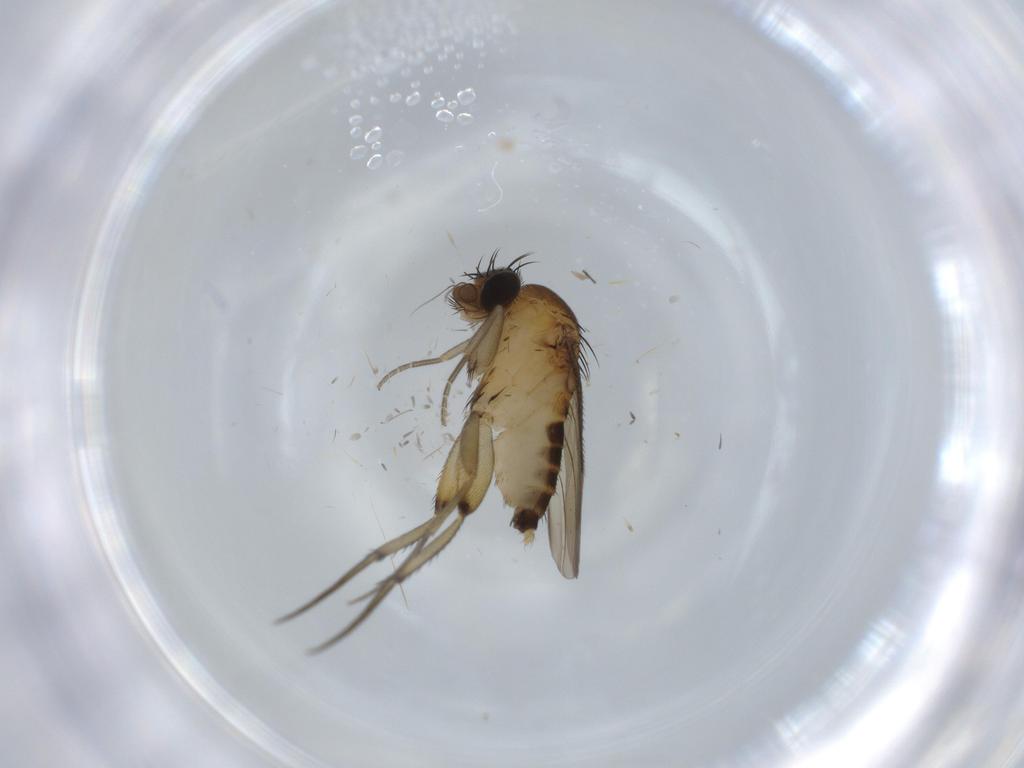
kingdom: Animalia
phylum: Arthropoda
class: Insecta
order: Diptera
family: Phoridae
